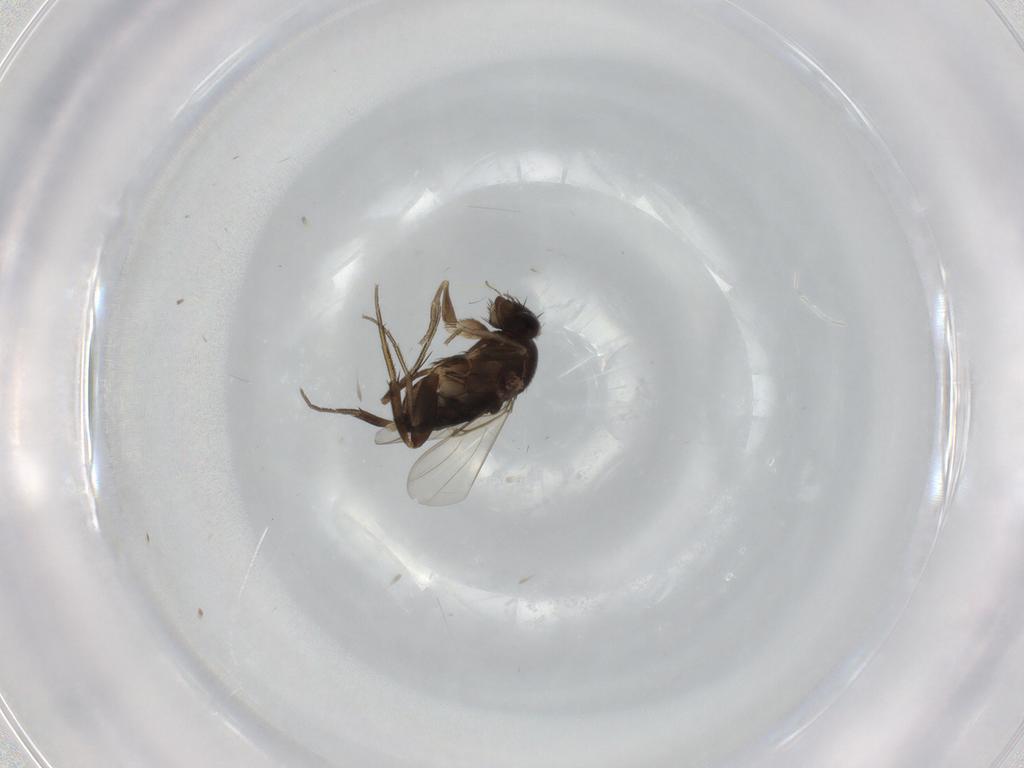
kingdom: Animalia
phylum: Arthropoda
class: Insecta
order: Diptera
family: Phoridae
